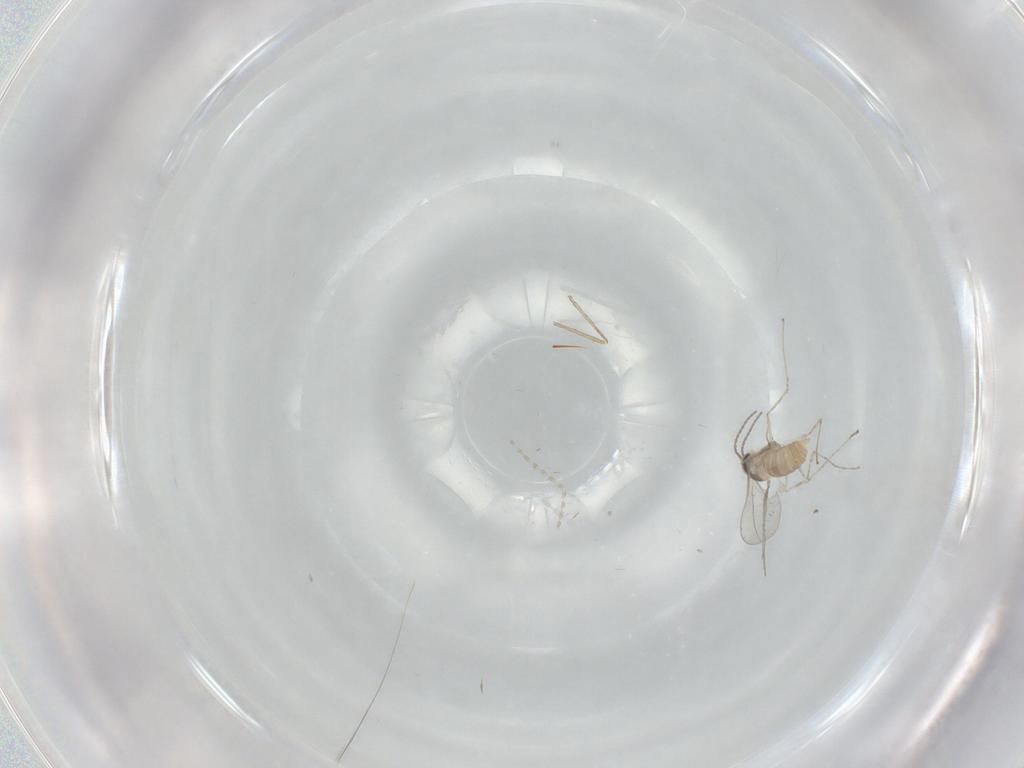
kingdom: Animalia
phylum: Arthropoda
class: Insecta
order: Diptera
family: Cecidomyiidae
